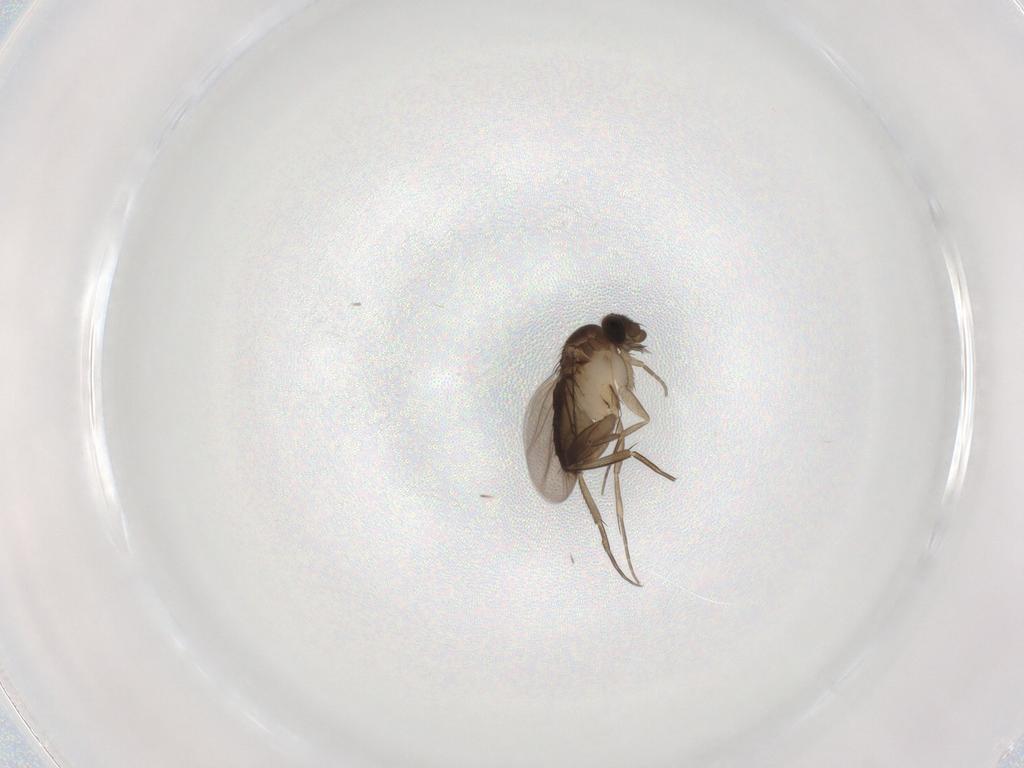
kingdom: Animalia
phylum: Arthropoda
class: Insecta
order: Diptera
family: Phoridae
